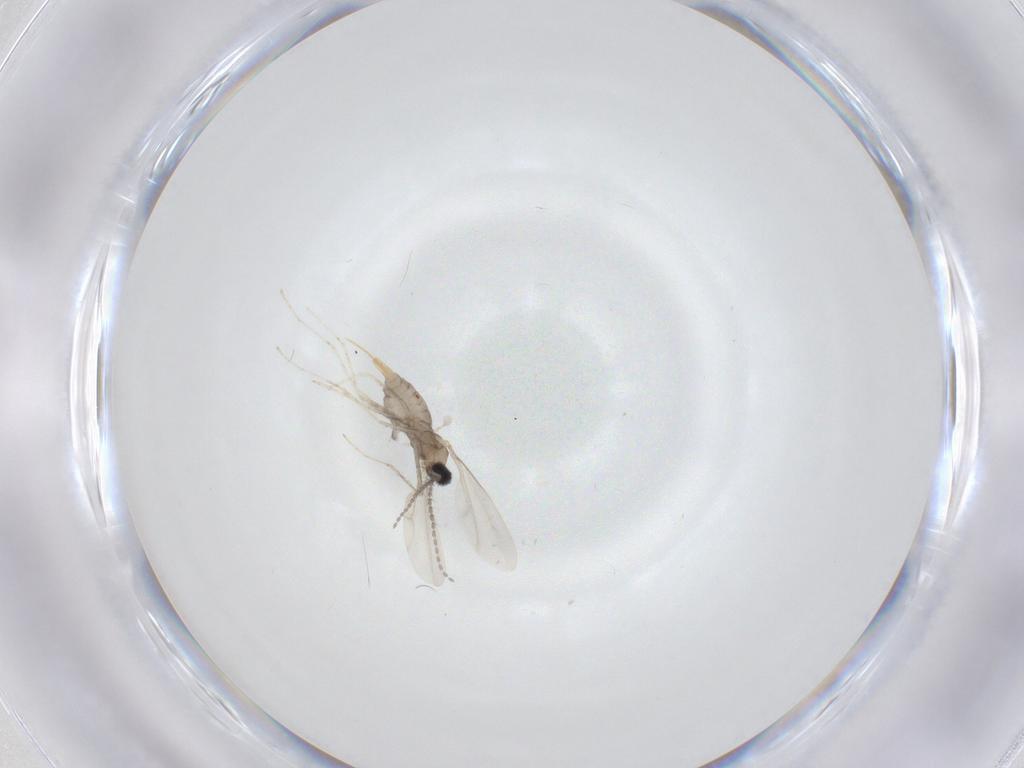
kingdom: Animalia
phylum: Arthropoda
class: Insecta
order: Diptera
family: Cecidomyiidae
